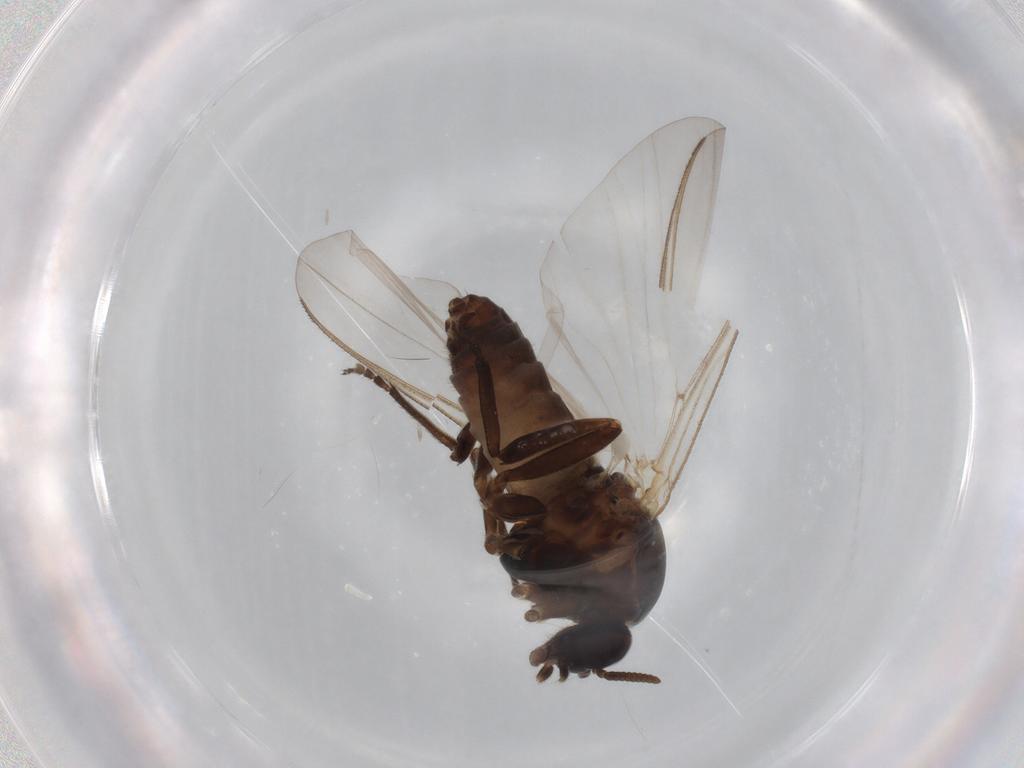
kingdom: Animalia
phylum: Arthropoda
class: Insecta
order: Diptera
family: Simuliidae
